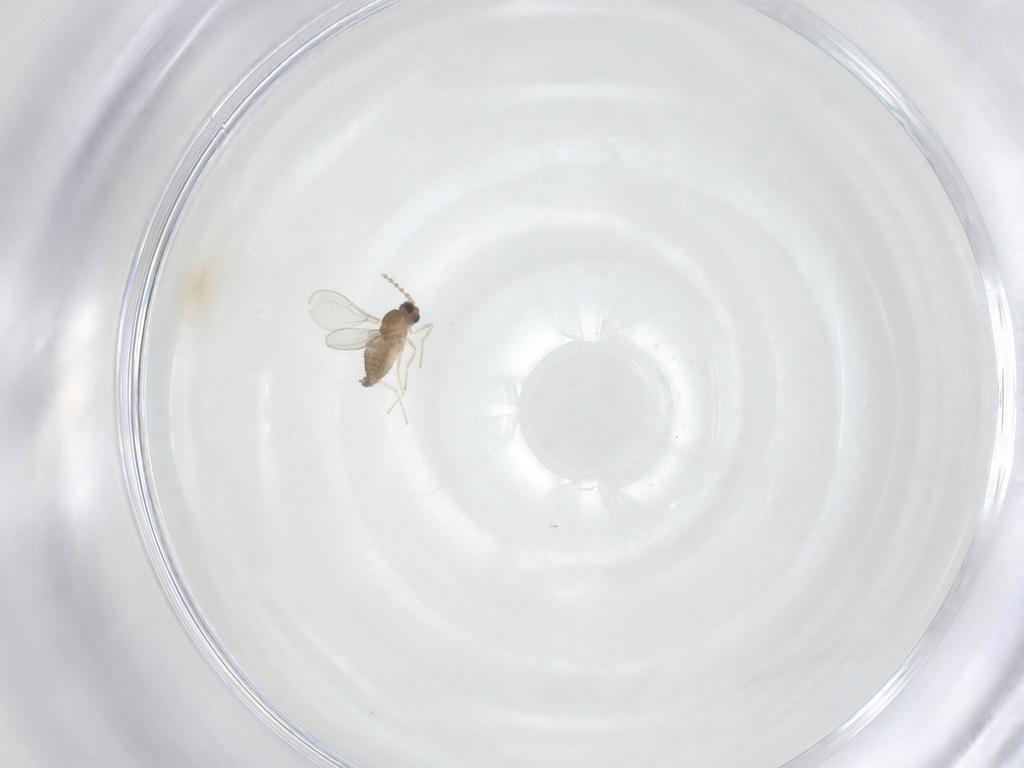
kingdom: Animalia
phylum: Arthropoda
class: Insecta
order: Diptera
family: Cecidomyiidae
